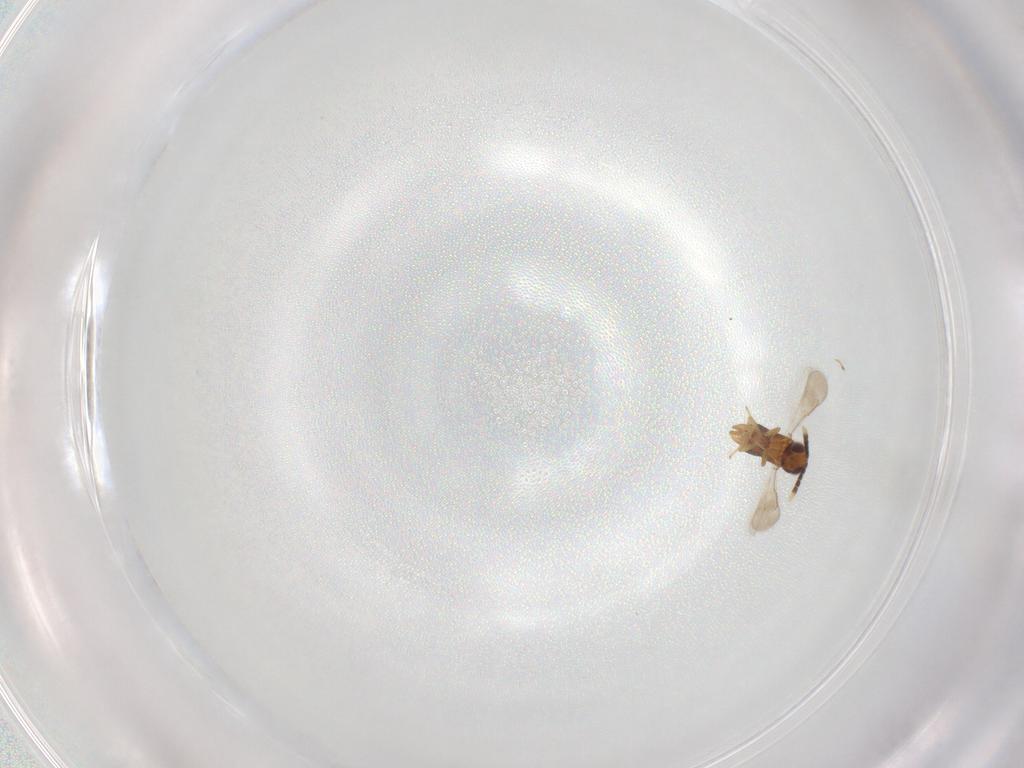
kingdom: Animalia
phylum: Arthropoda
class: Insecta
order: Hymenoptera
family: Aphelinidae
